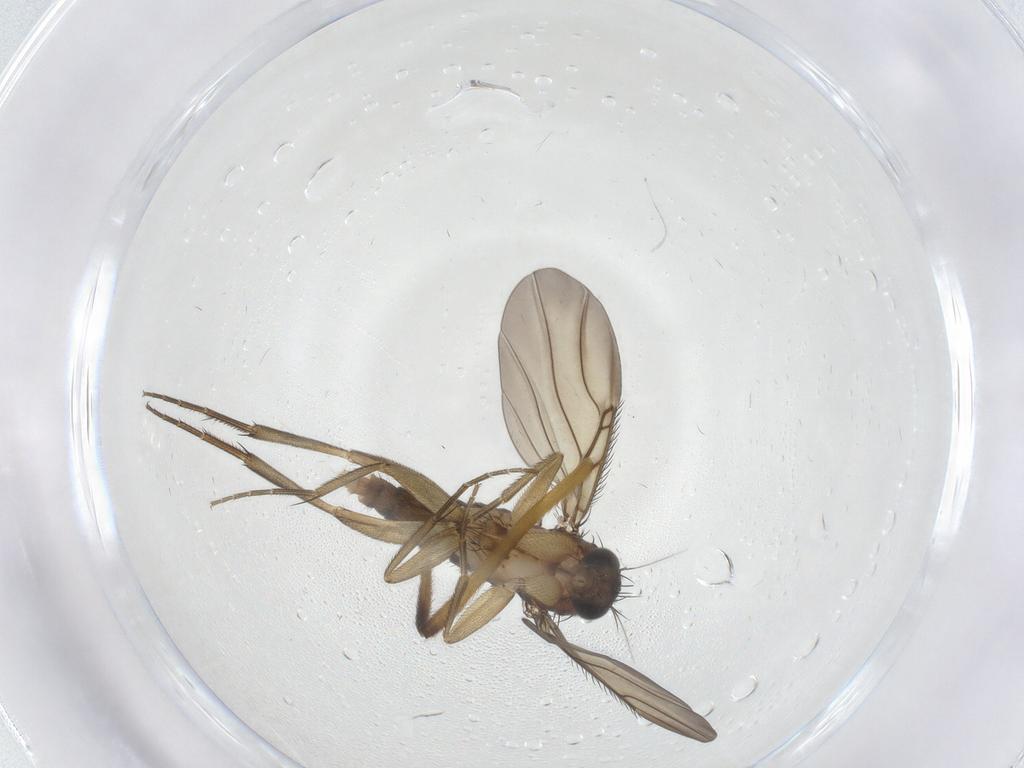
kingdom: Animalia
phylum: Arthropoda
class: Insecta
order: Diptera
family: Phoridae
